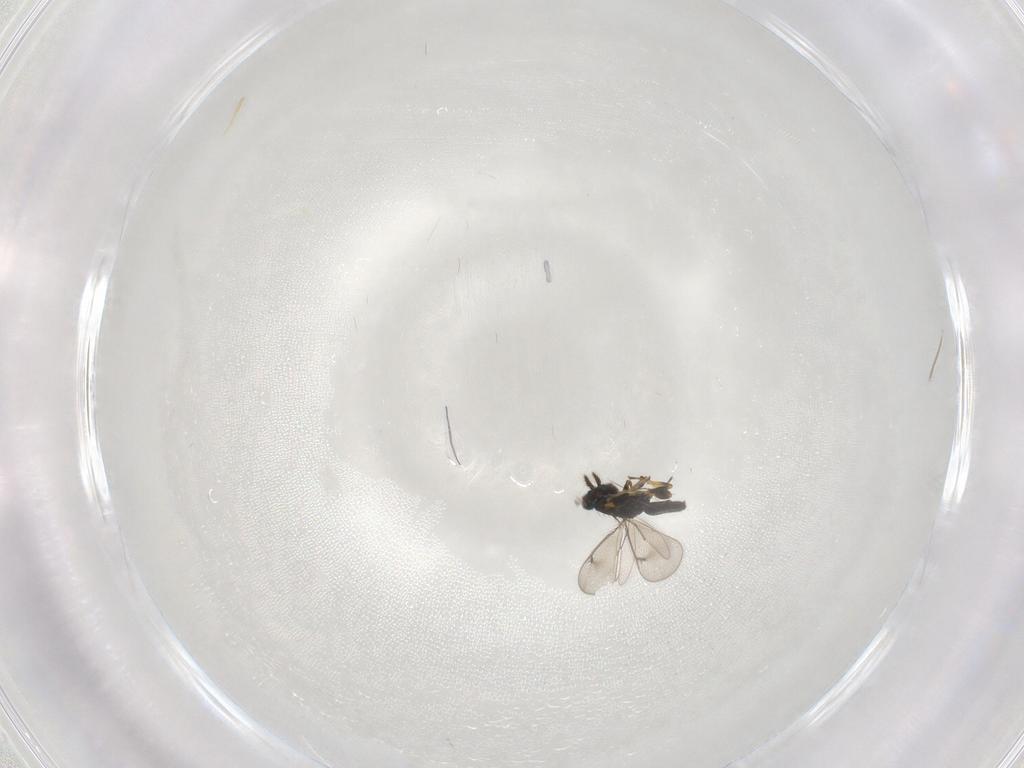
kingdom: Animalia
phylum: Arthropoda
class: Insecta
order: Hymenoptera
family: Eulophidae
